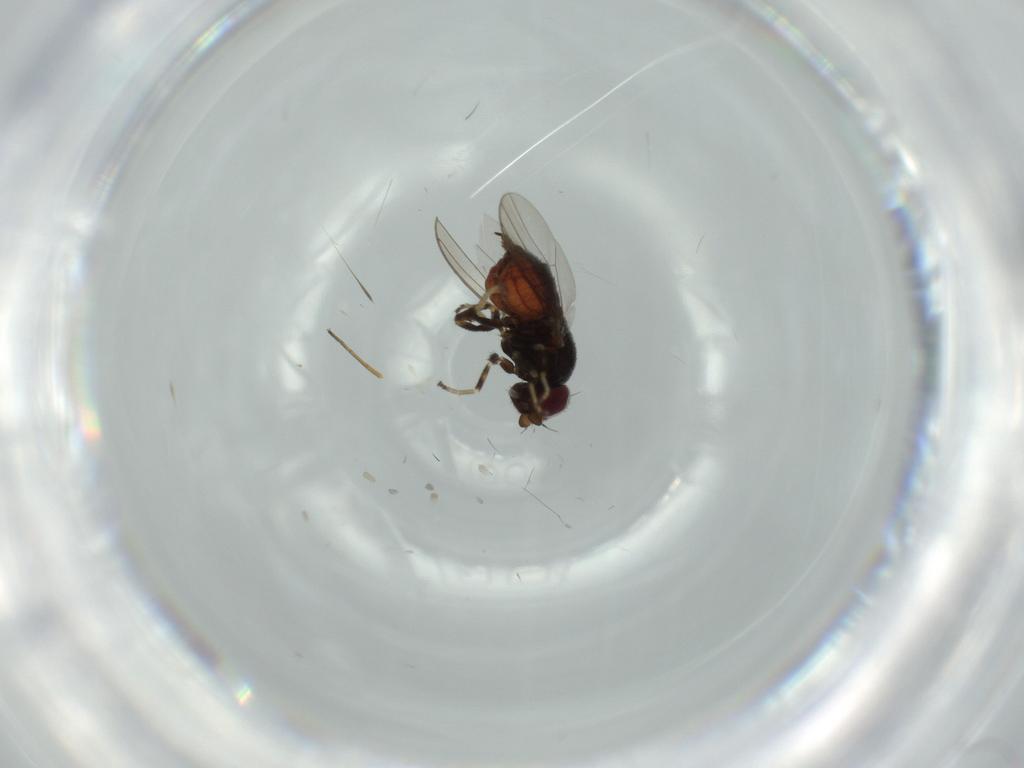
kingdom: Animalia
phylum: Arthropoda
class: Insecta
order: Diptera
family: Chloropidae
